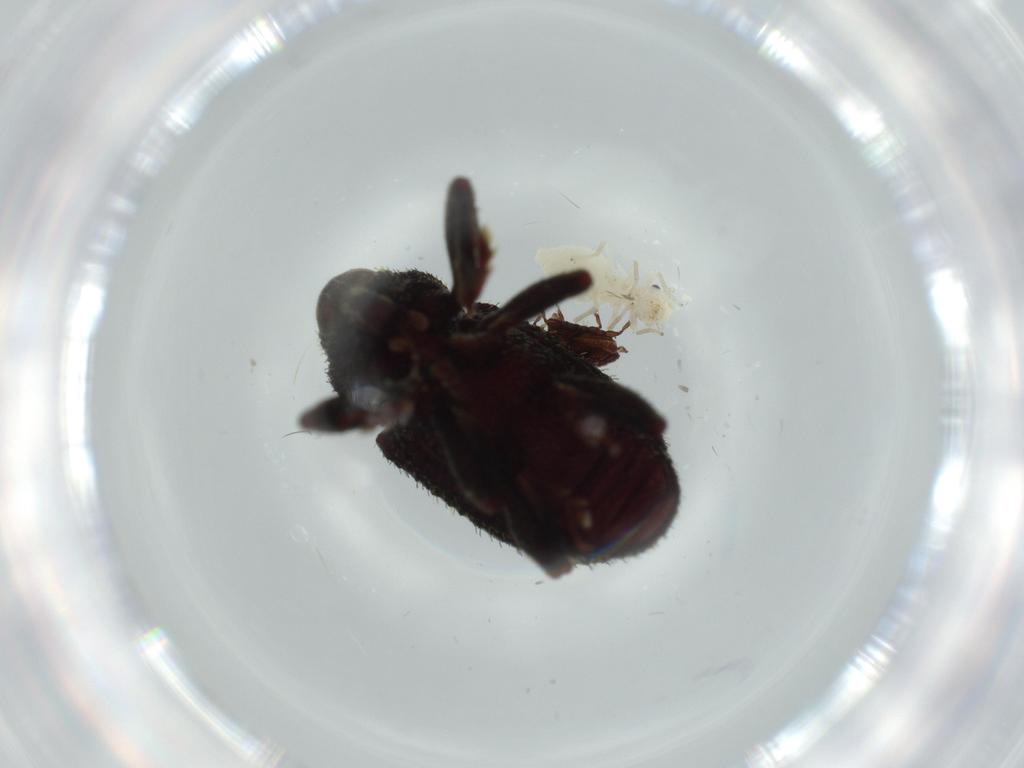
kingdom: Animalia
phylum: Arthropoda
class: Insecta
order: Coleoptera
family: Carabidae
